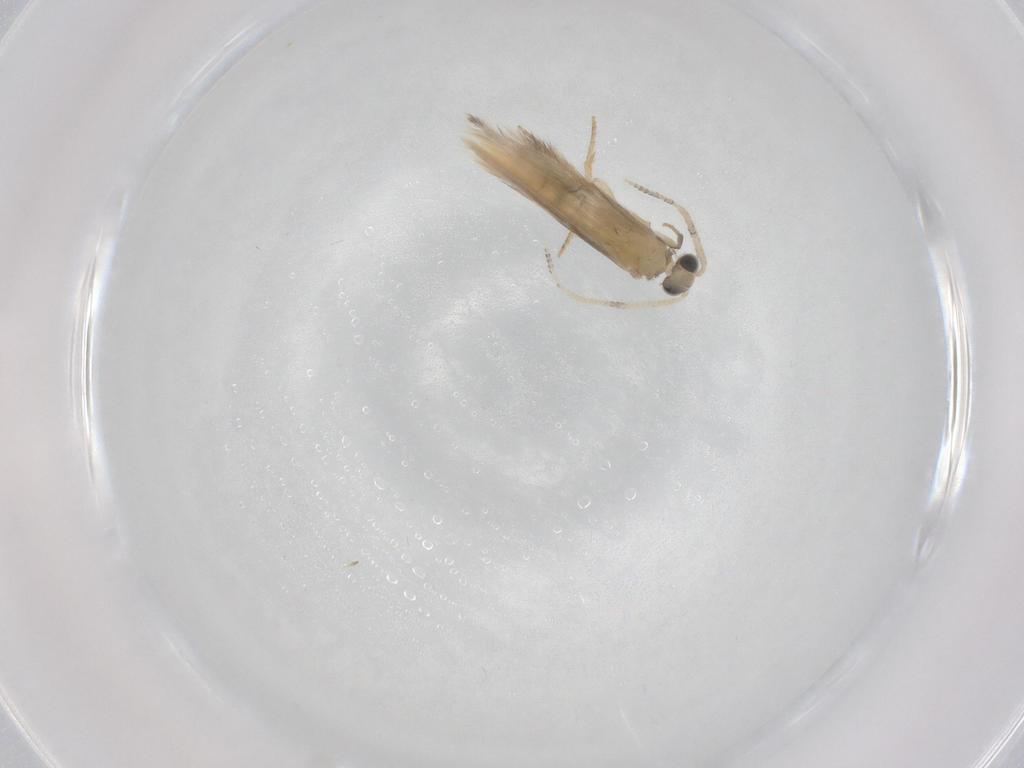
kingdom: Animalia
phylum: Arthropoda
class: Insecta
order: Trichoptera
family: Hydroptilidae
